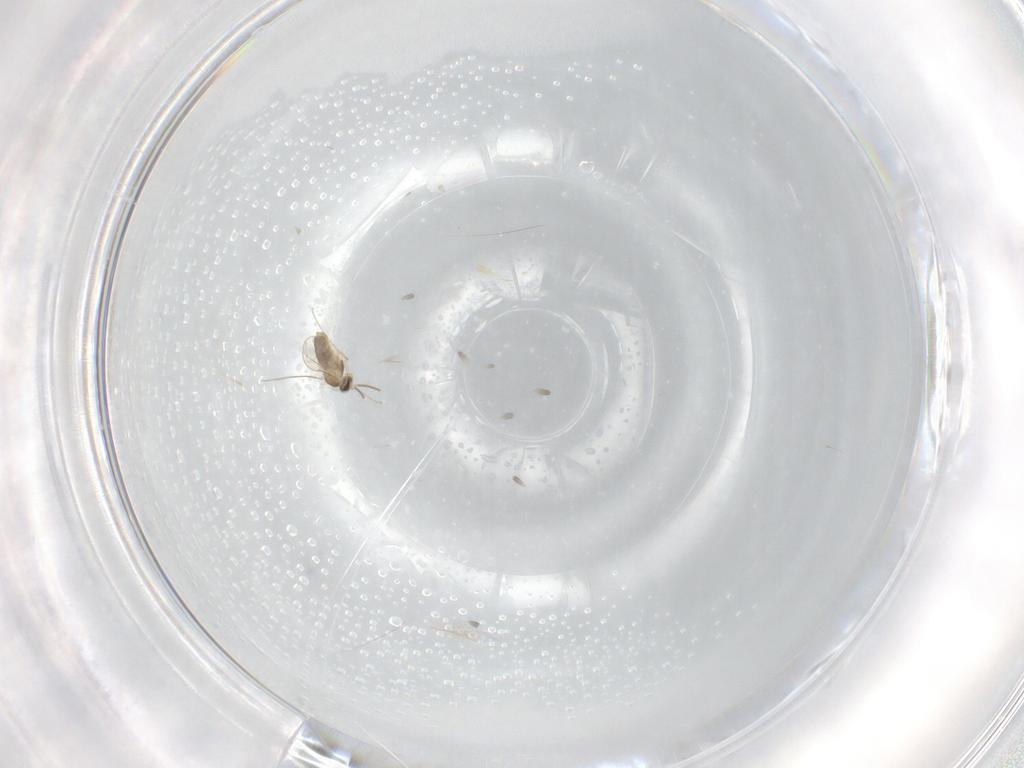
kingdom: Animalia
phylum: Arthropoda
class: Insecta
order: Diptera
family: Cecidomyiidae
